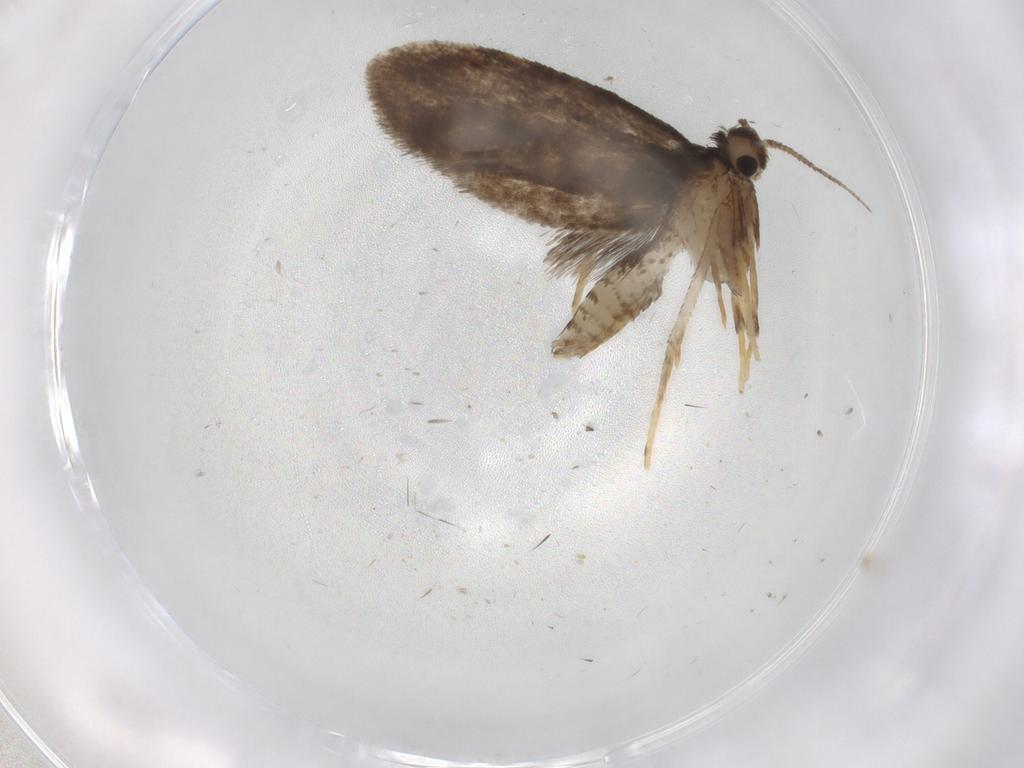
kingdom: Animalia
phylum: Arthropoda
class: Insecta
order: Lepidoptera
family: Psychidae
